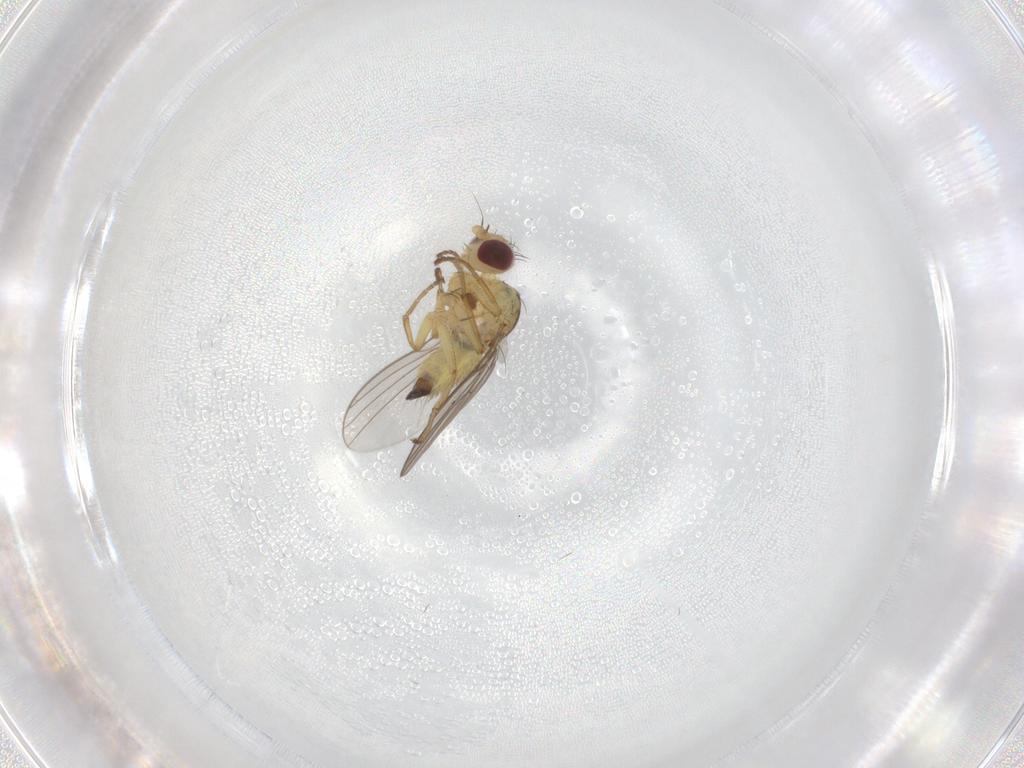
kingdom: Animalia
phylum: Arthropoda
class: Insecta
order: Diptera
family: Agromyzidae
